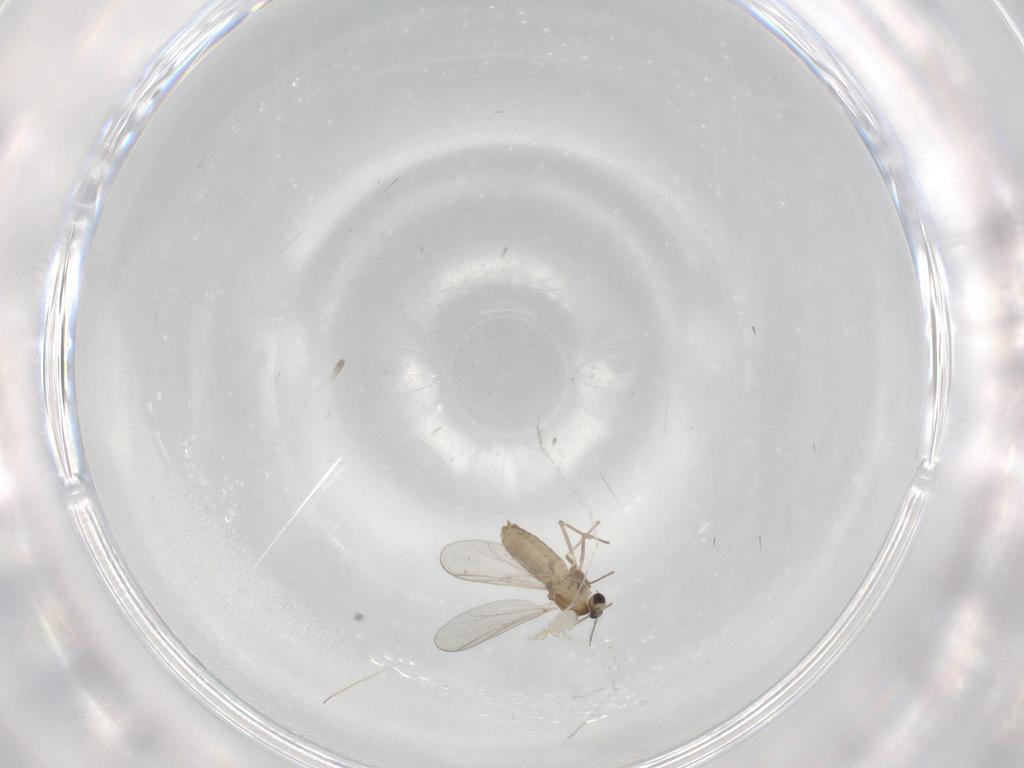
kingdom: Animalia
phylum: Arthropoda
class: Insecta
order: Diptera
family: Chironomidae
